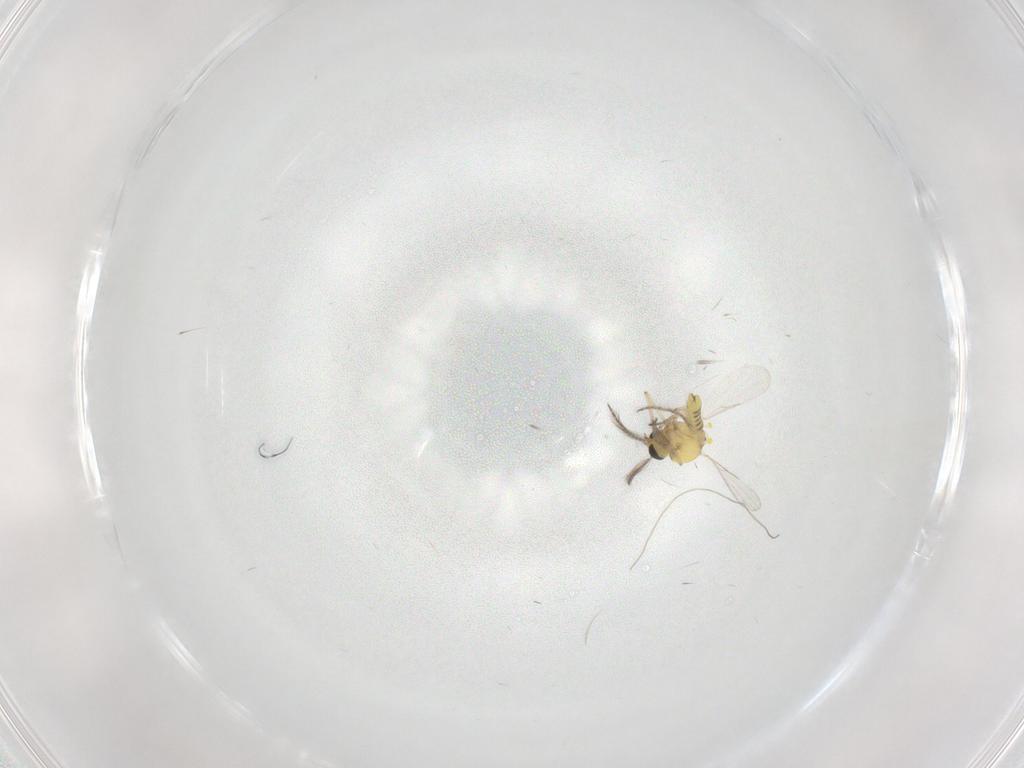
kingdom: Animalia
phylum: Arthropoda
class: Insecta
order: Diptera
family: Ceratopogonidae
